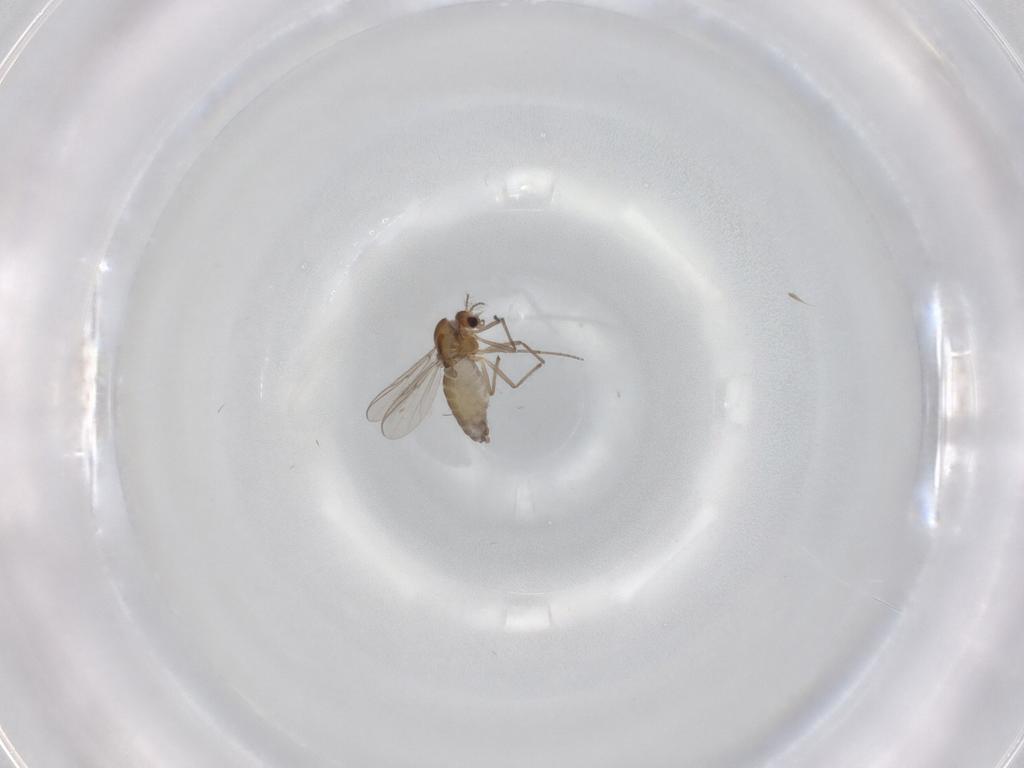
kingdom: Animalia
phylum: Arthropoda
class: Insecta
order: Diptera
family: Chironomidae
